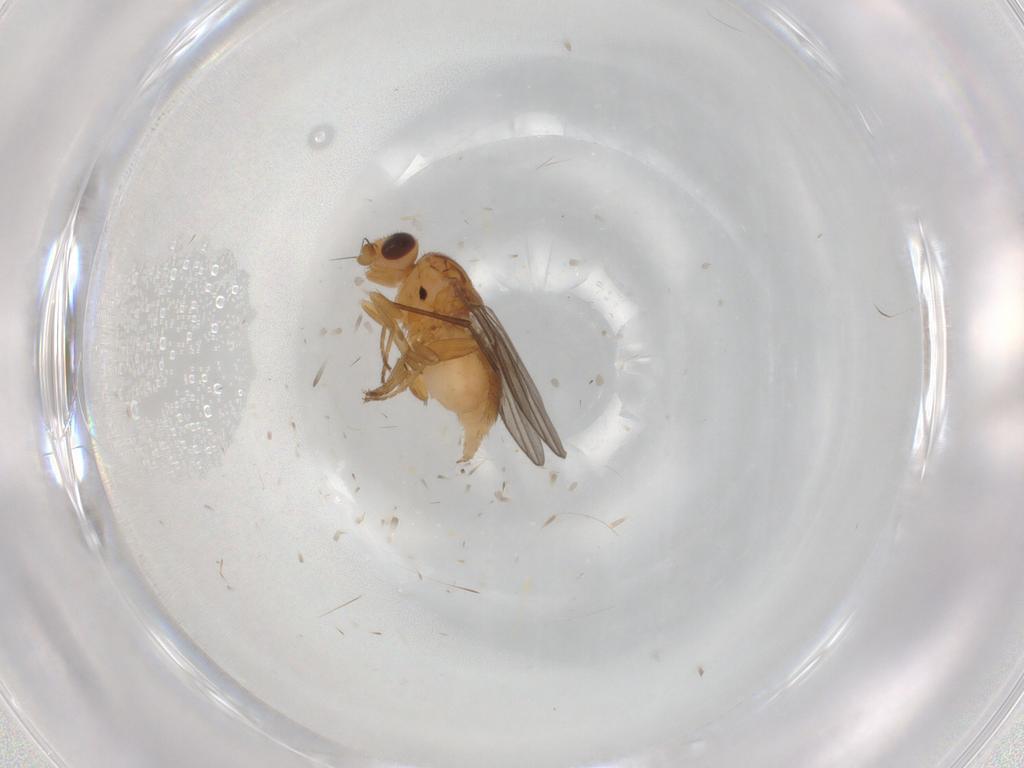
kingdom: Animalia
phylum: Arthropoda
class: Insecta
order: Diptera
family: Chloropidae
